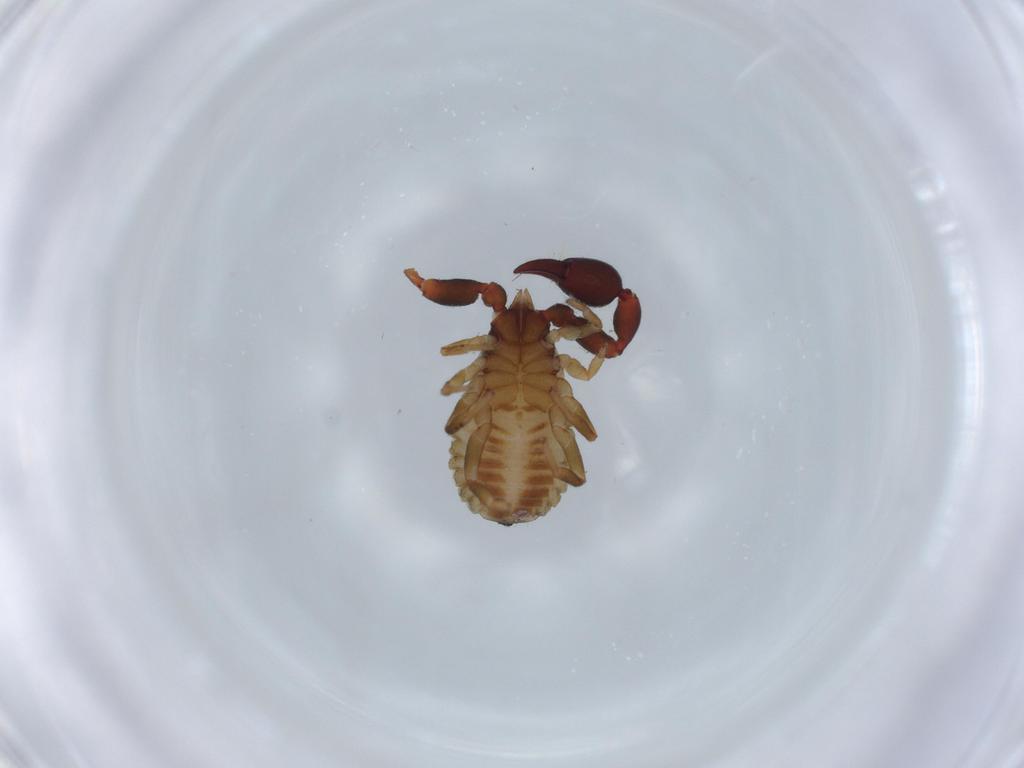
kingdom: Animalia
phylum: Arthropoda
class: Arachnida
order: Pseudoscorpiones
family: Chernetidae
